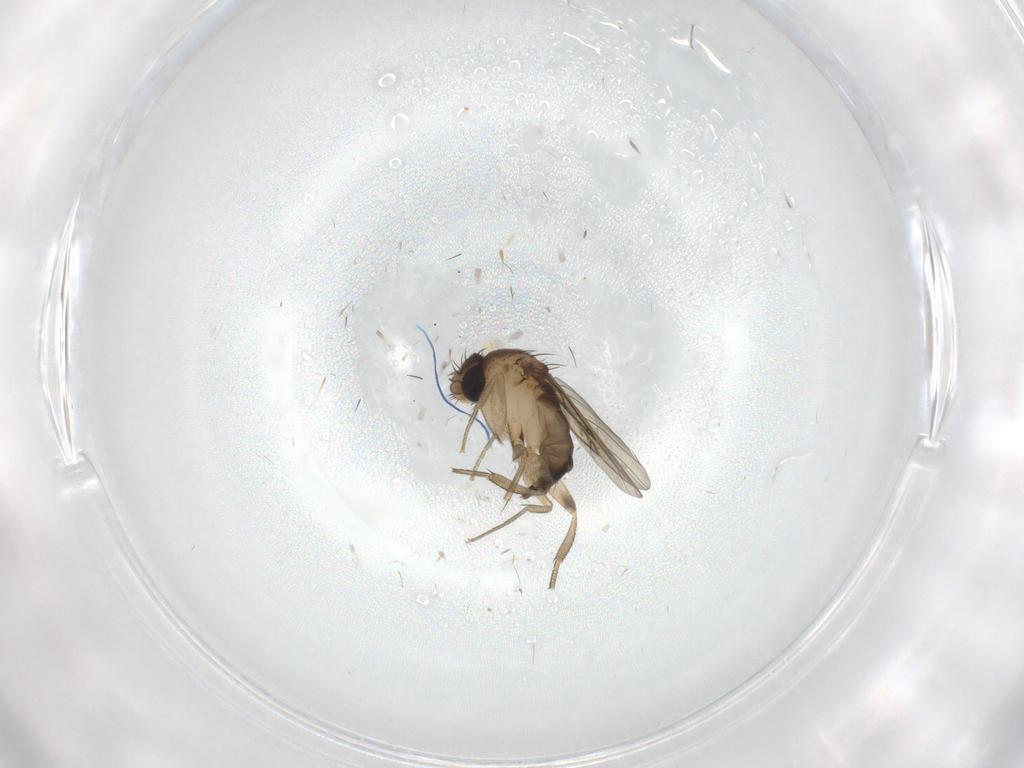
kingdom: Animalia
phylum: Arthropoda
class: Insecta
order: Diptera
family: Cecidomyiidae
